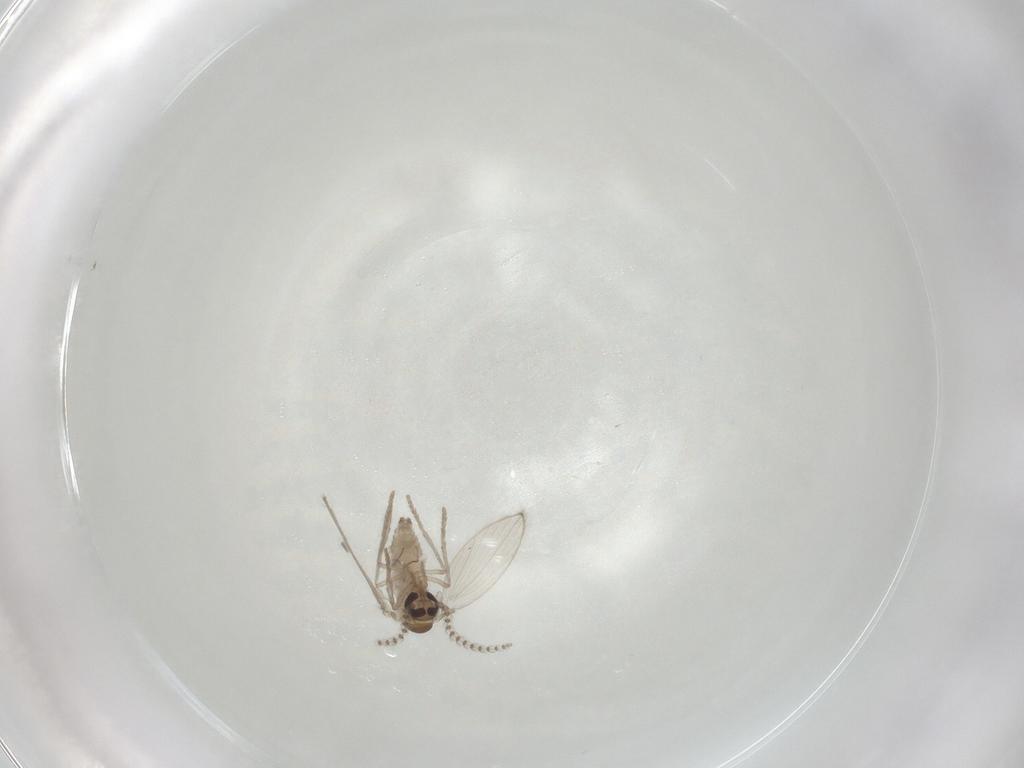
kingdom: Animalia
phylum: Arthropoda
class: Insecta
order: Diptera
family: Psychodidae
